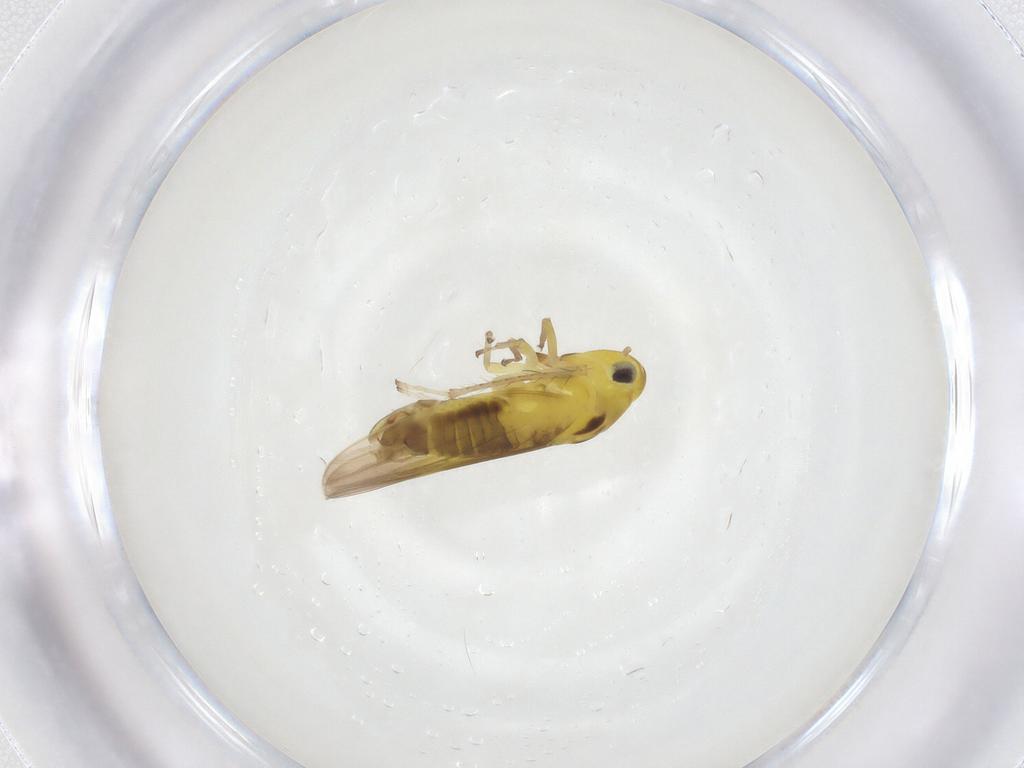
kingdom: Animalia
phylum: Arthropoda
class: Insecta
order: Hemiptera
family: Cicadellidae
